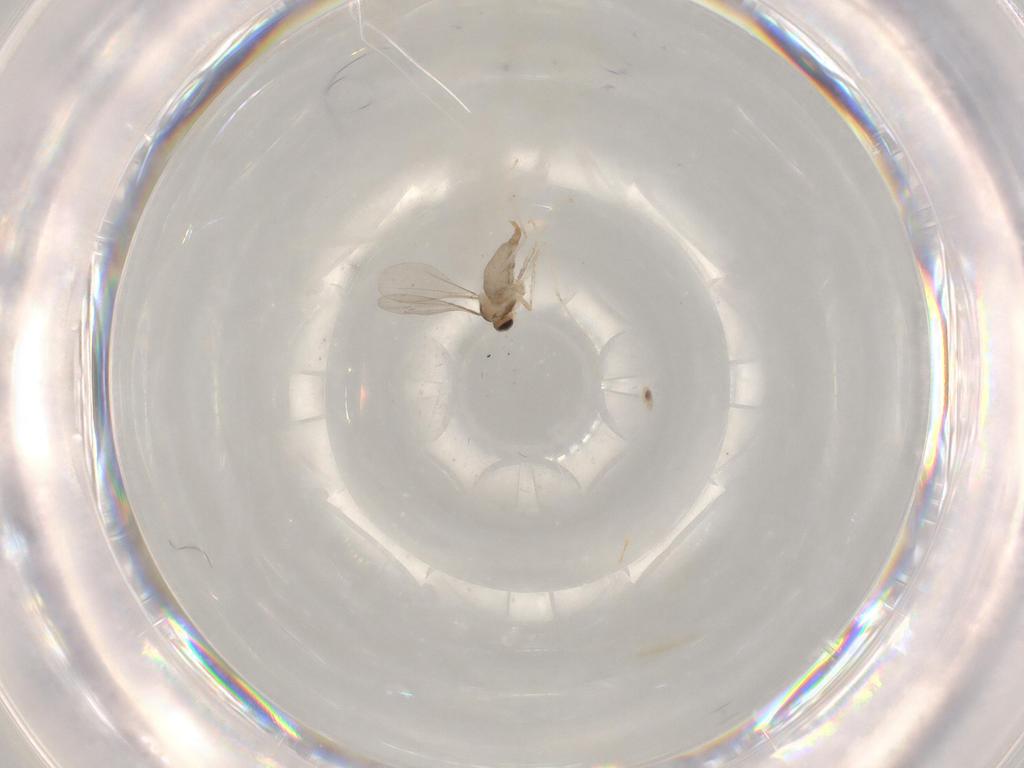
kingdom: Animalia
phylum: Arthropoda
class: Insecta
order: Diptera
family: Cecidomyiidae
